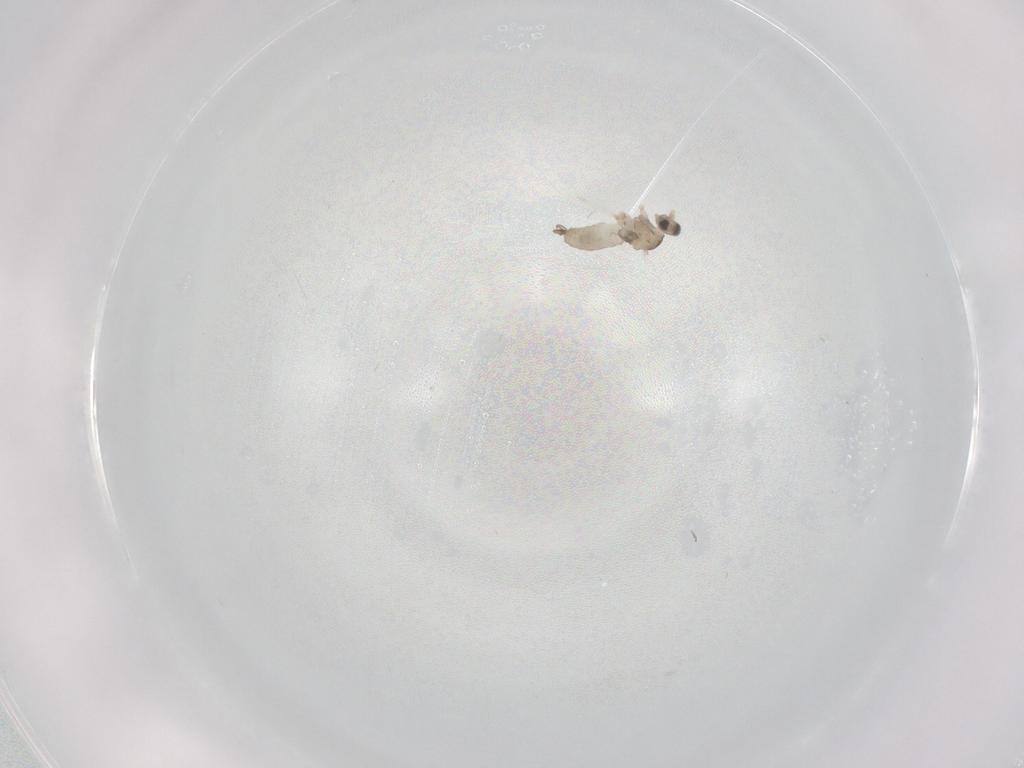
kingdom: Animalia
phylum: Arthropoda
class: Insecta
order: Diptera
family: Cecidomyiidae
